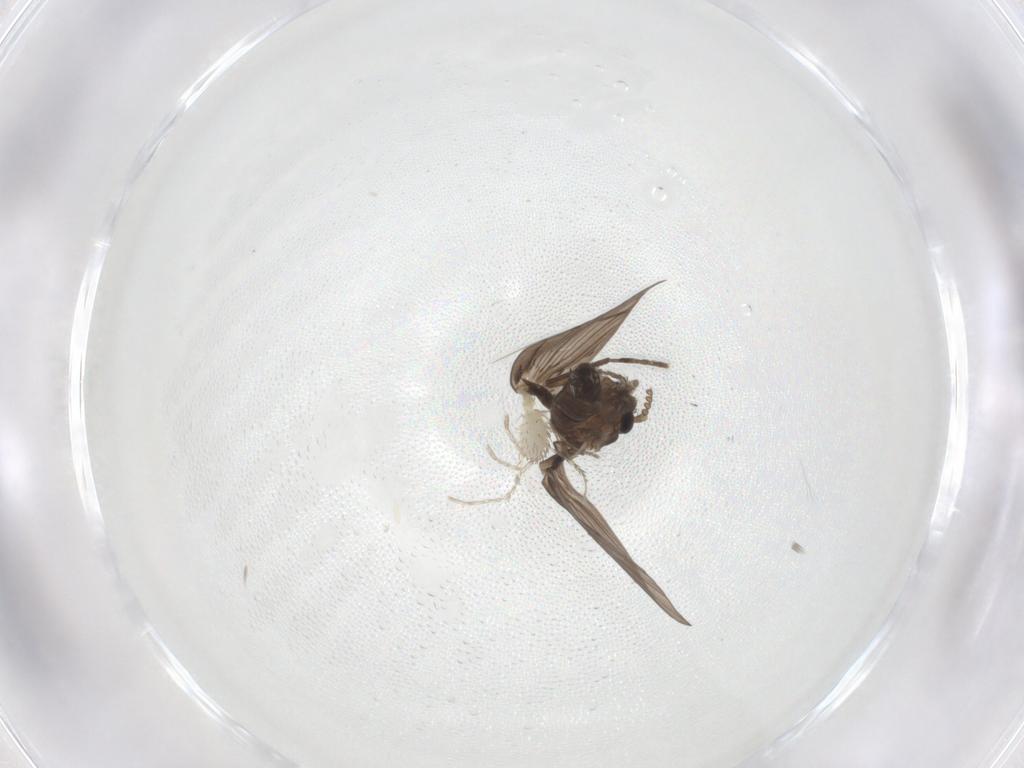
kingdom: Animalia
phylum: Arthropoda
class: Insecta
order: Diptera
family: Psychodidae
